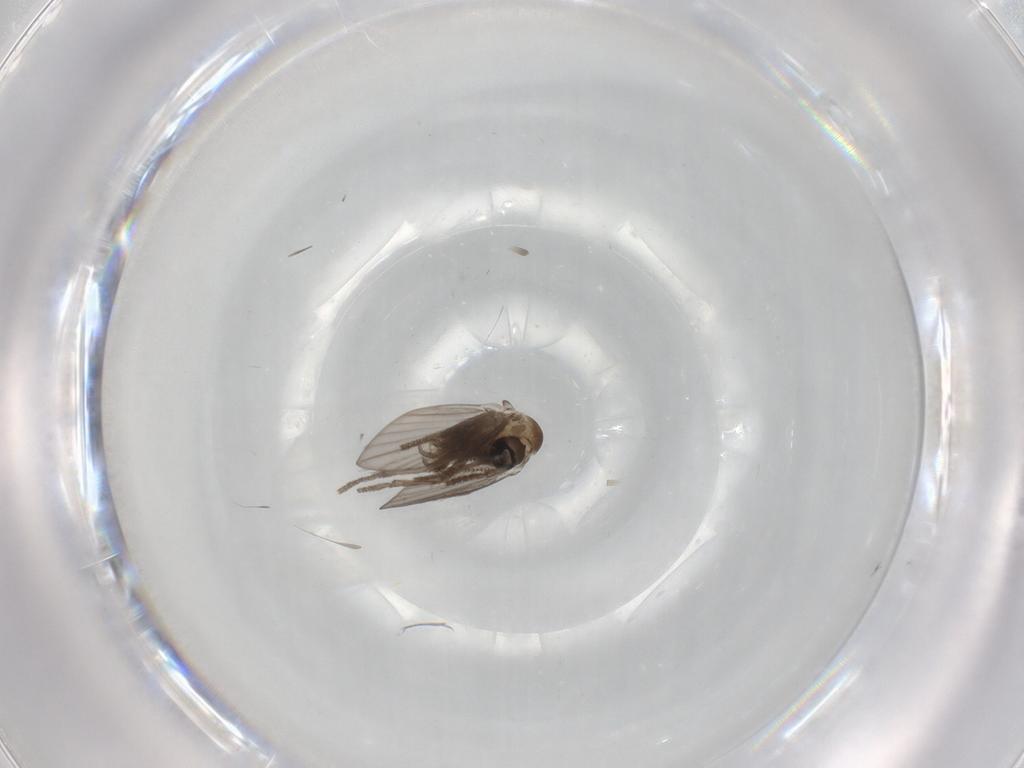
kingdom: Animalia
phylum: Arthropoda
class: Insecta
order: Diptera
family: Psychodidae
